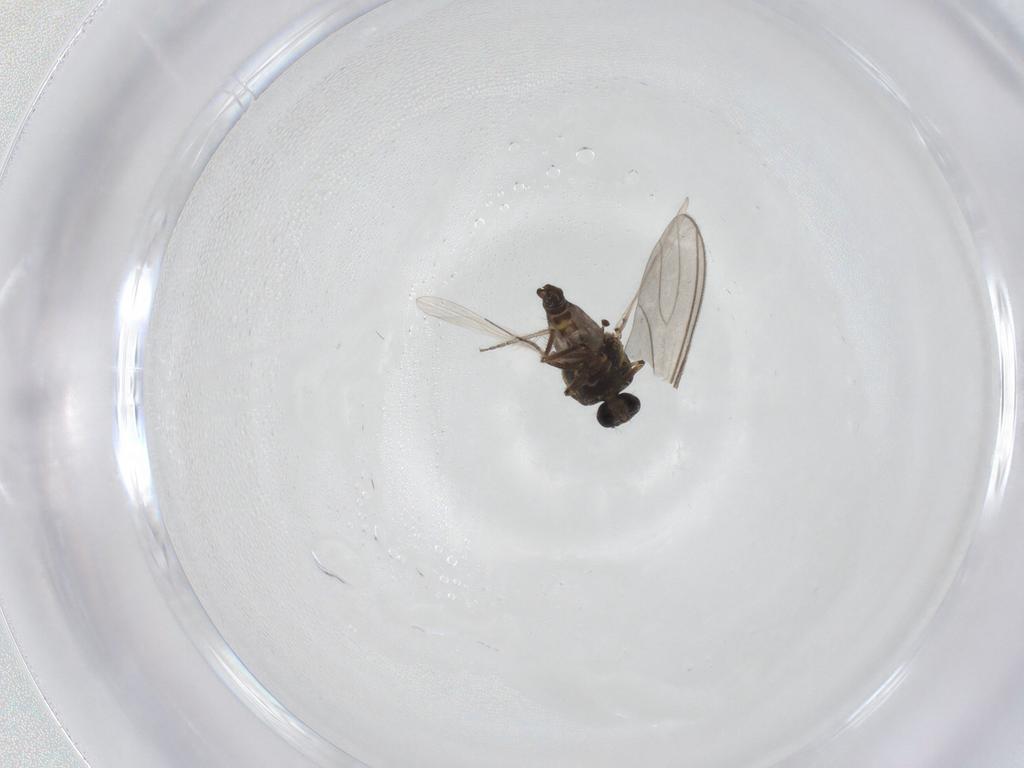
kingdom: Animalia
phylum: Arthropoda
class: Insecta
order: Diptera
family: Ceratopogonidae
